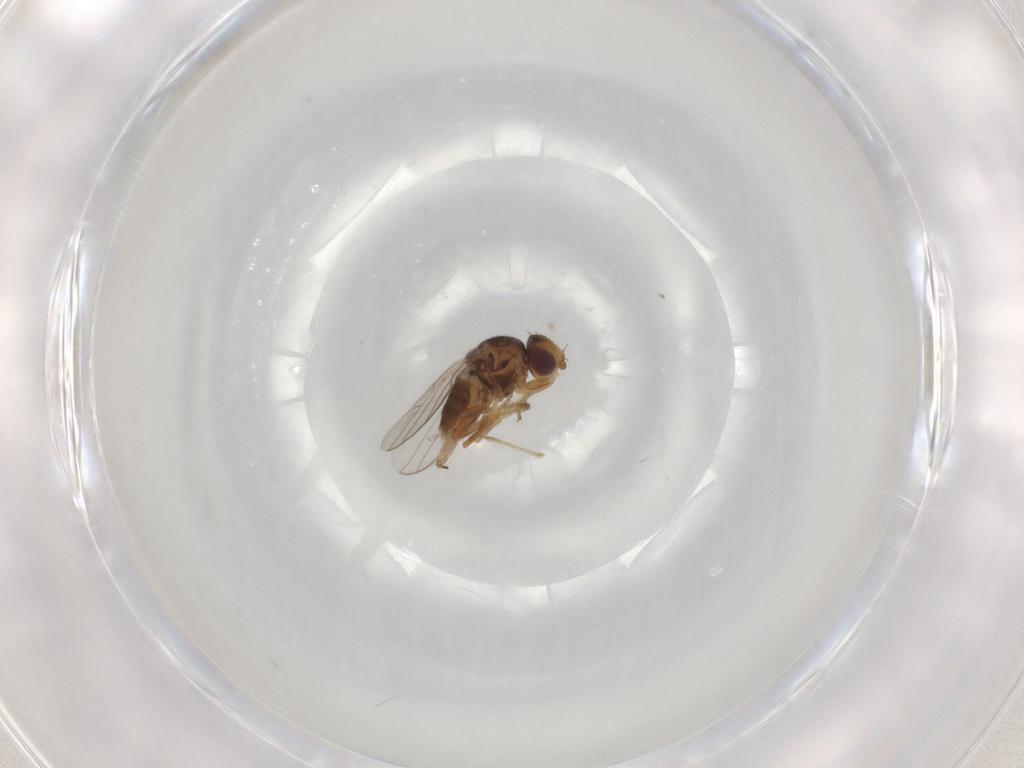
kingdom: Animalia
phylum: Arthropoda
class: Insecta
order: Diptera
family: Chloropidae
